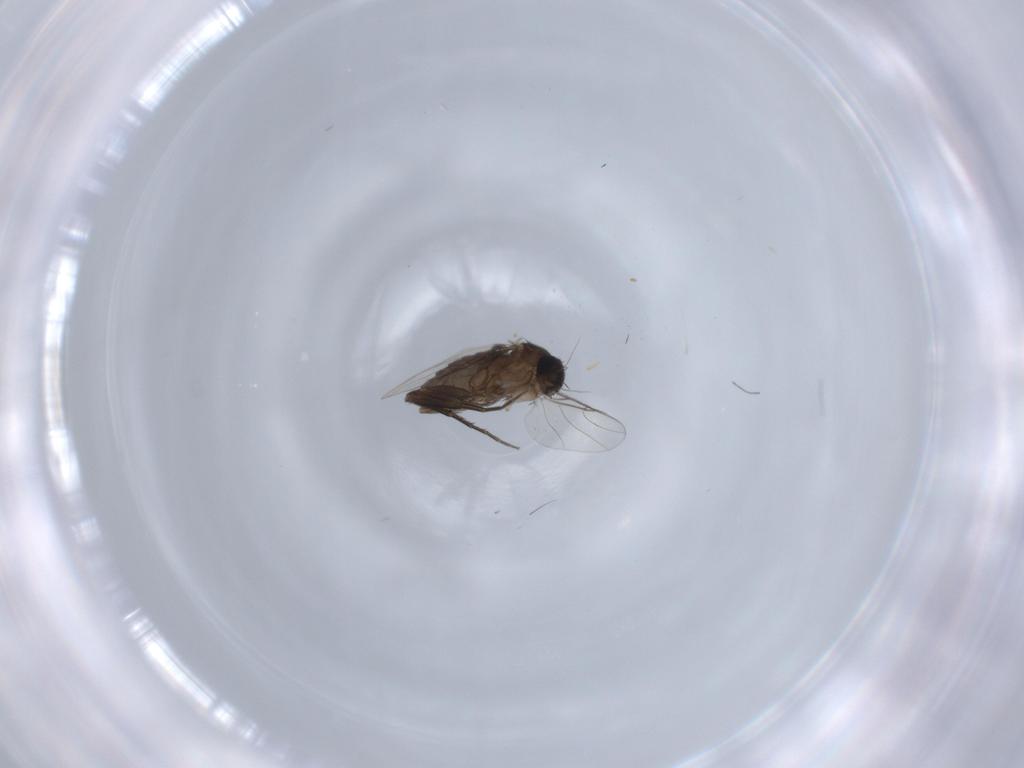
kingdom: Animalia
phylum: Arthropoda
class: Insecta
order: Diptera
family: Phoridae
